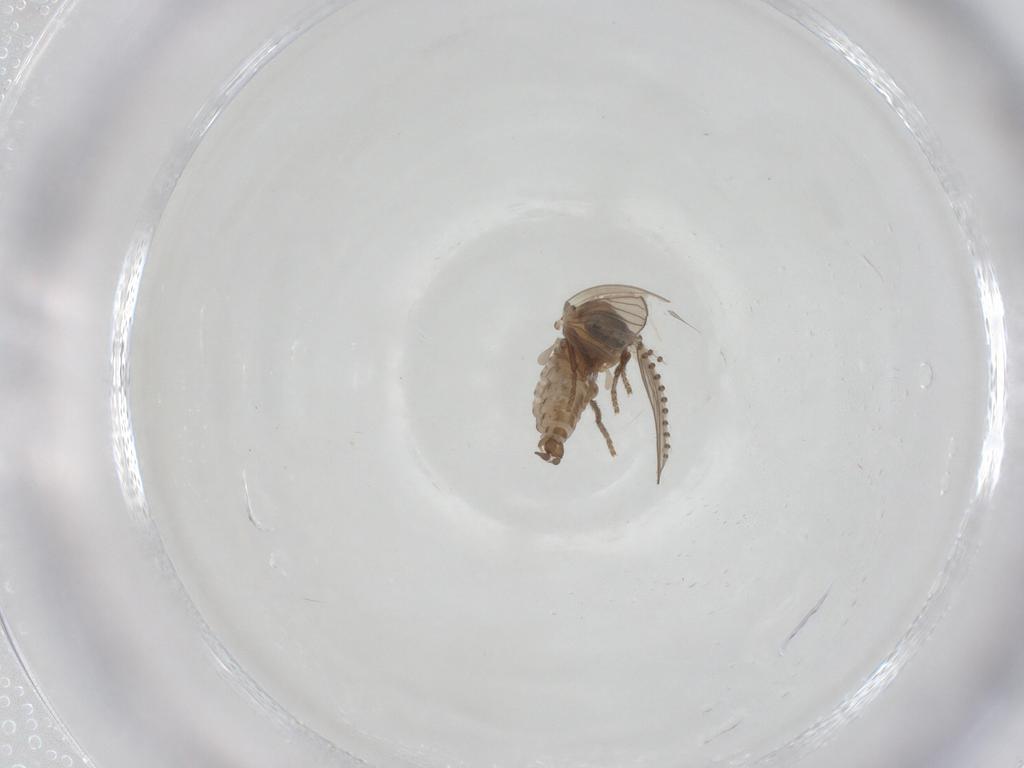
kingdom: Animalia
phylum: Arthropoda
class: Insecta
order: Diptera
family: Psychodidae
